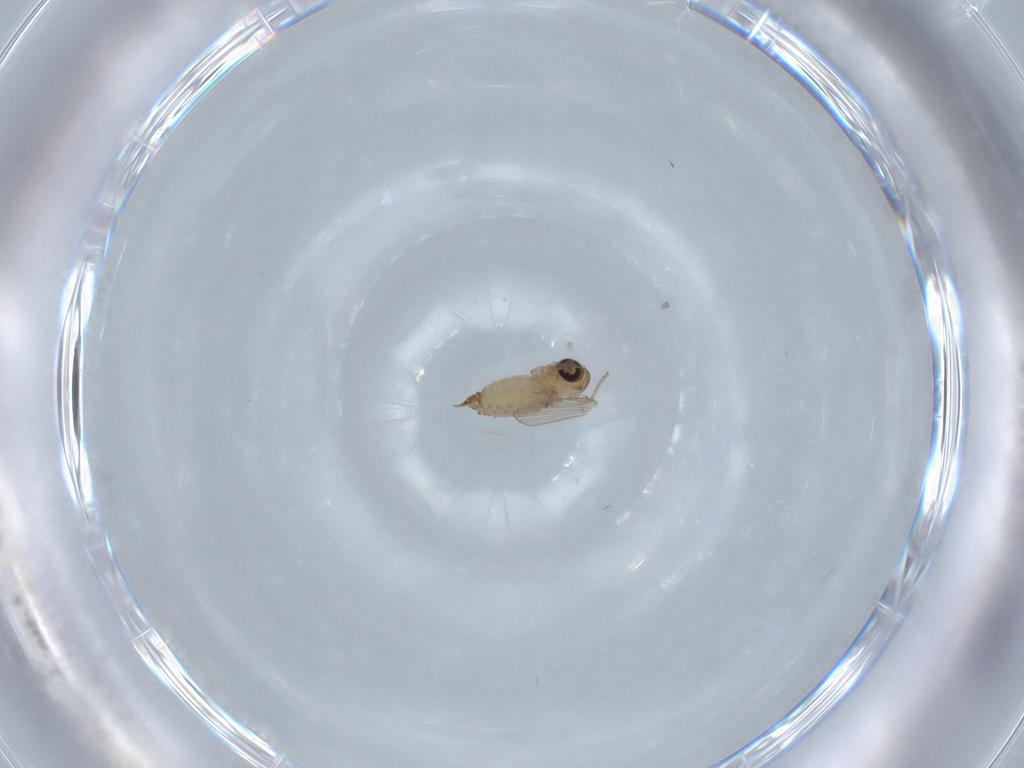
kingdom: Animalia
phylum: Arthropoda
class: Insecta
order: Diptera
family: Psychodidae
